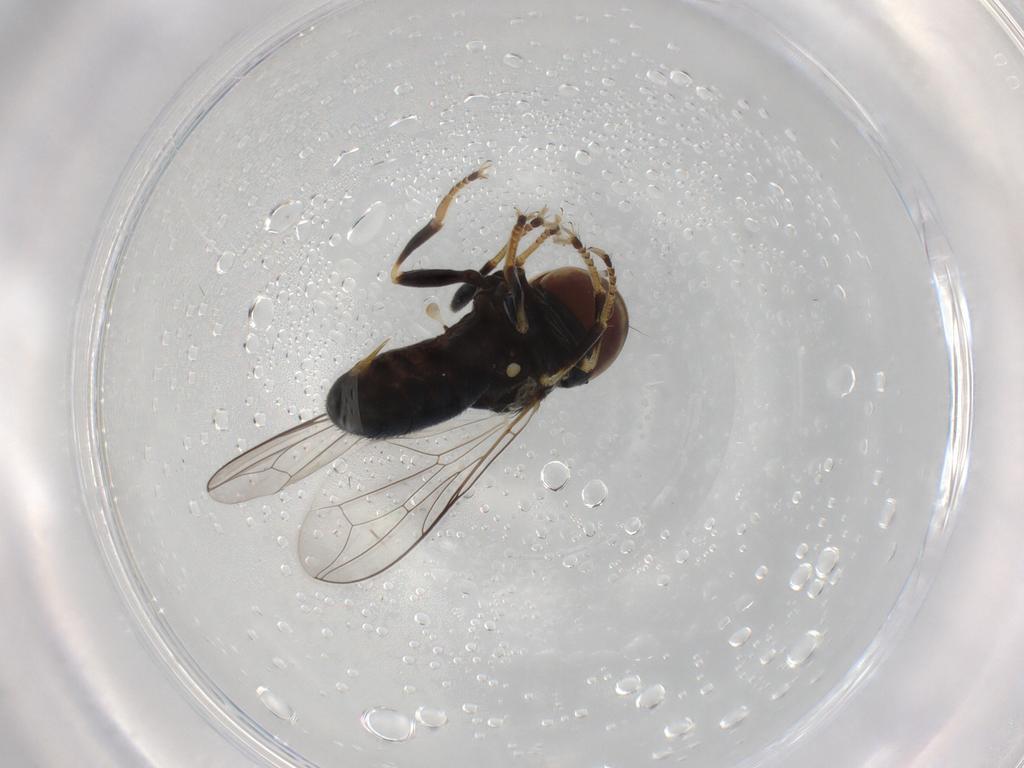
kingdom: Animalia
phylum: Arthropoda
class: Insecta
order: Diptera
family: Pipunculidae
